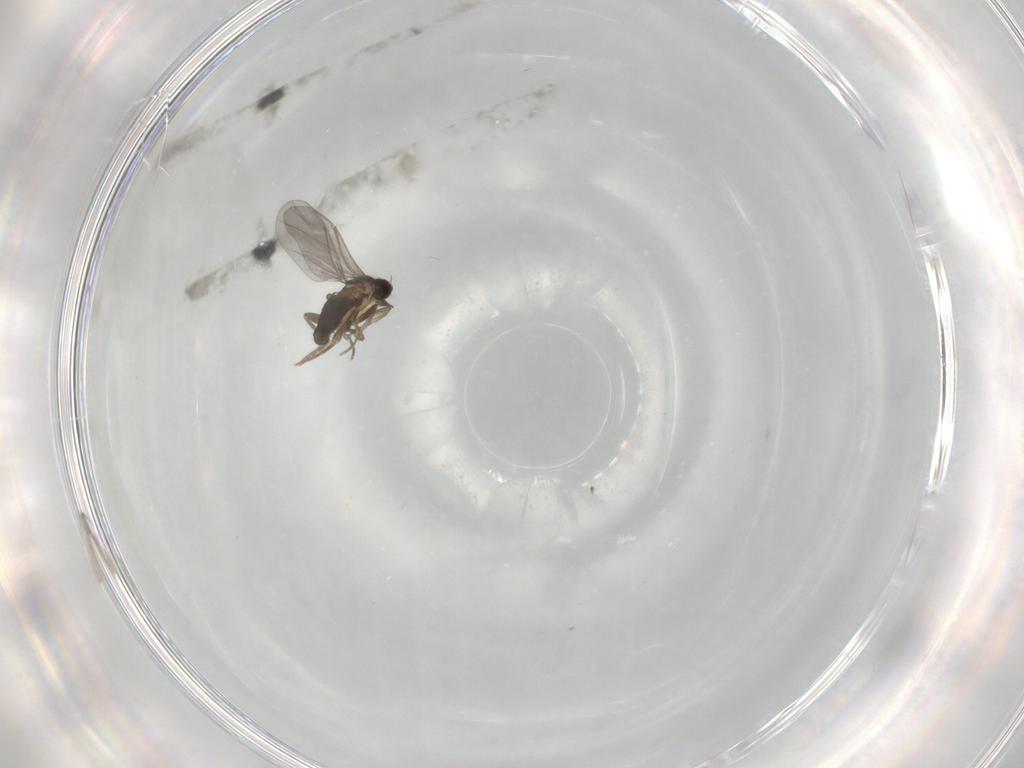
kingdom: Animalia
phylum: Arthropoda
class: Insecta
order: Diptera
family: Phoridae
